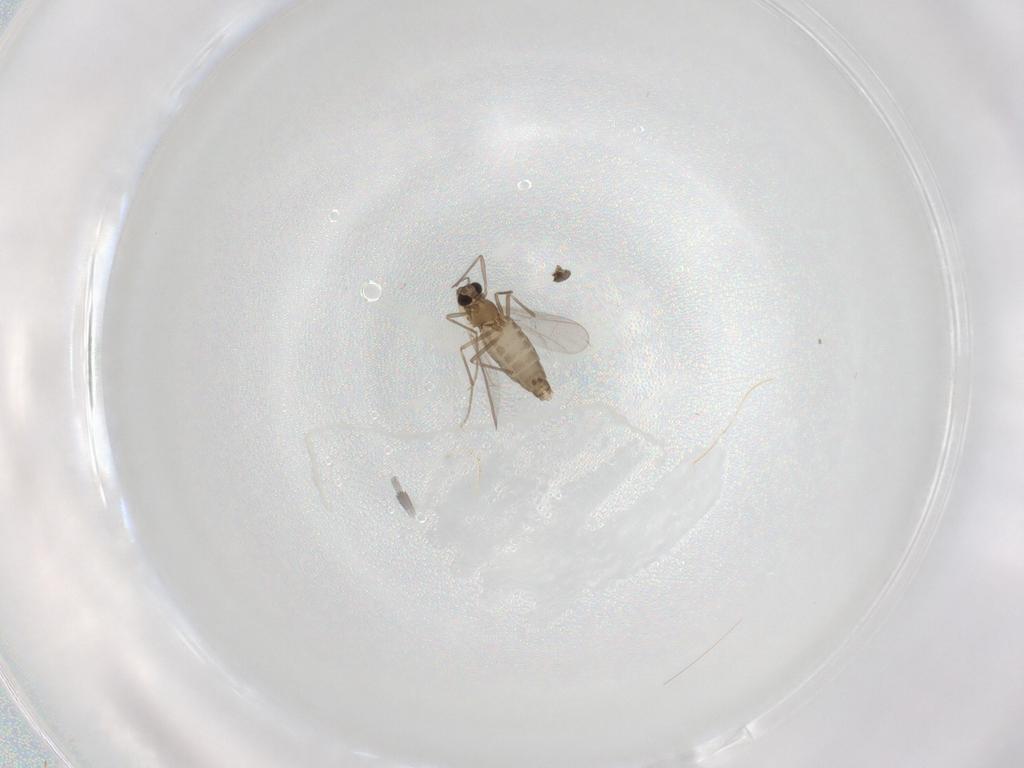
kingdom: Animalia
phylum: Arthropoda
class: Insecta
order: Diptera
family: Chironomidae
